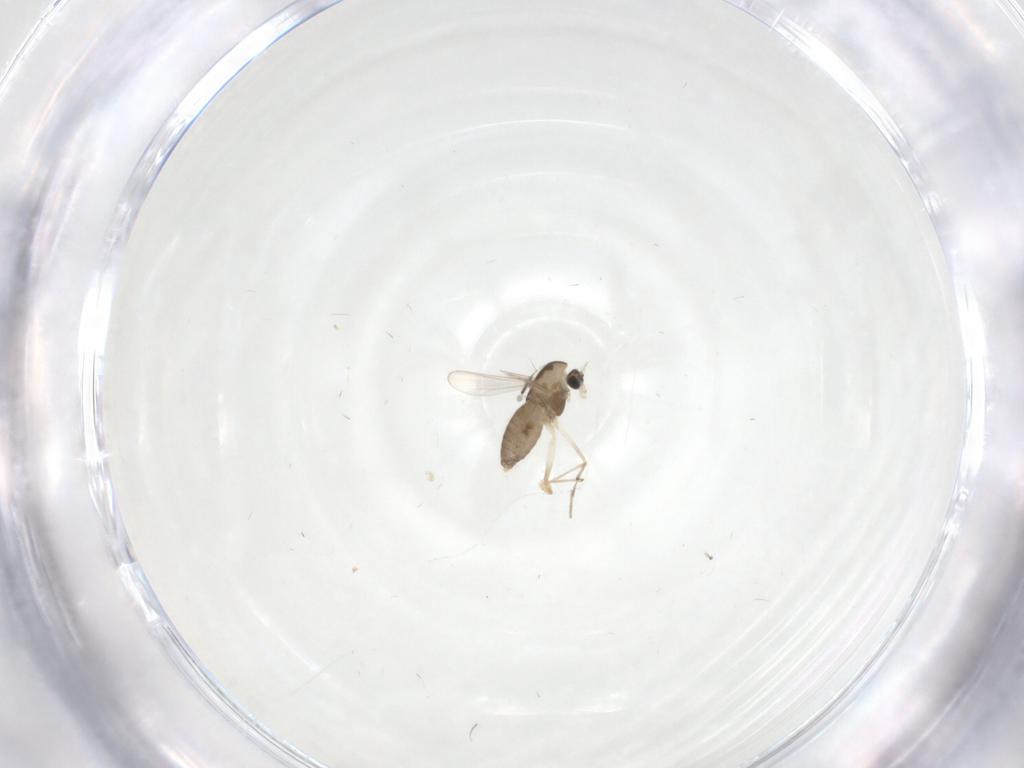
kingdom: Animalia
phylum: Arthropoda
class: Insecta
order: Diptera
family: Chironomidae
